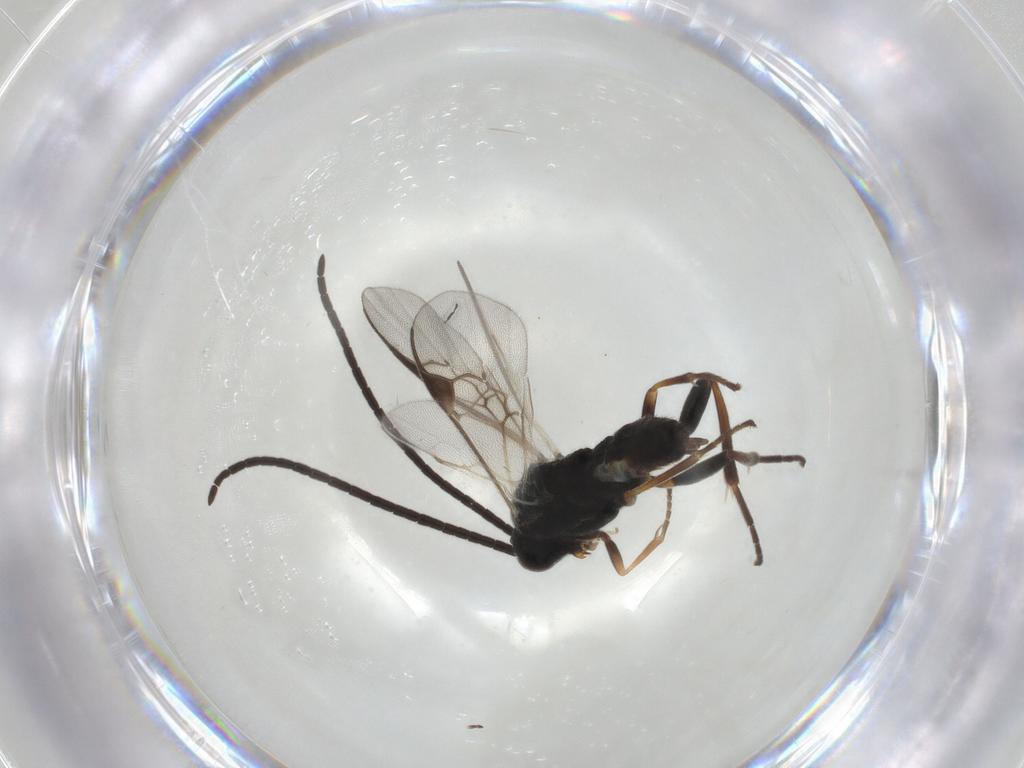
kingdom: Animalia
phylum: Arthropoda
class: Insecta
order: Hymenoptera
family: Braconidae
